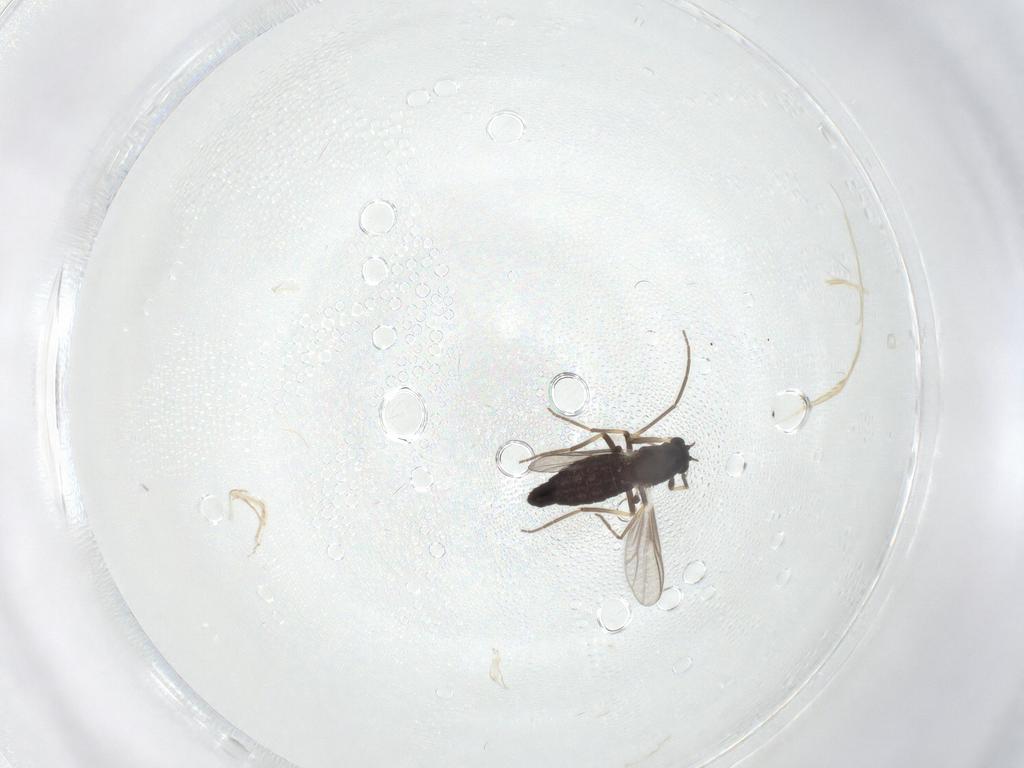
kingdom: Animalia
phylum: Arthropoda
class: Insecta
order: Diptera
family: Chironomidae
